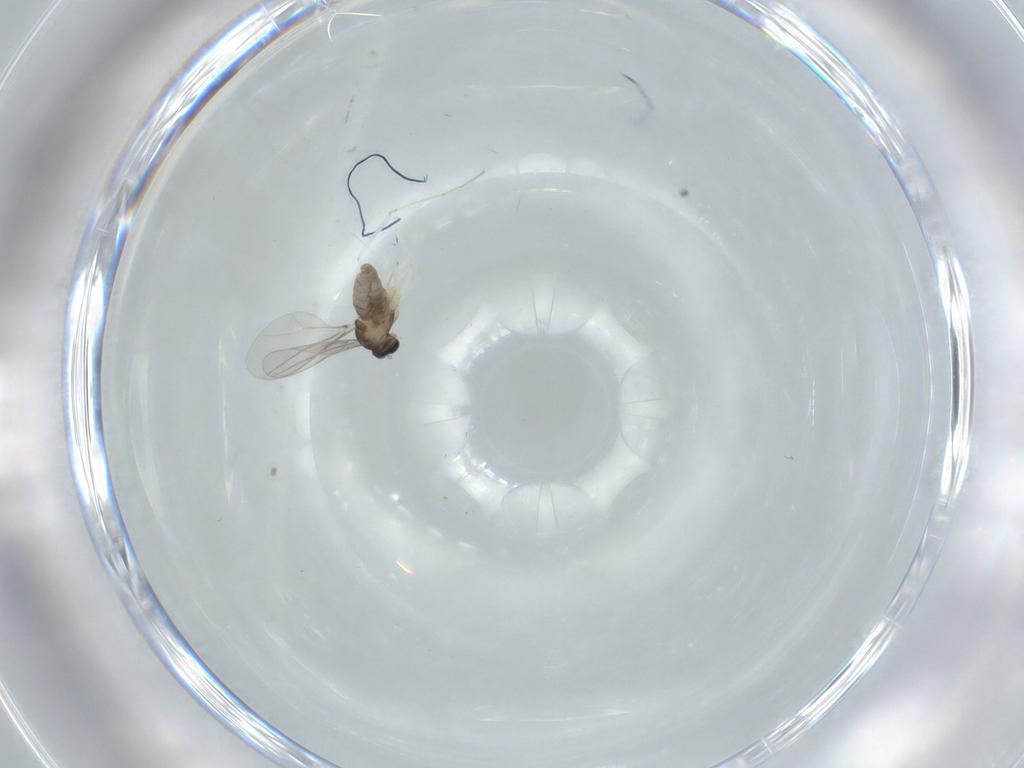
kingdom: Animalia
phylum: Arthropoda
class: Insecta
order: Diptera
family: Cecidomyiidae
